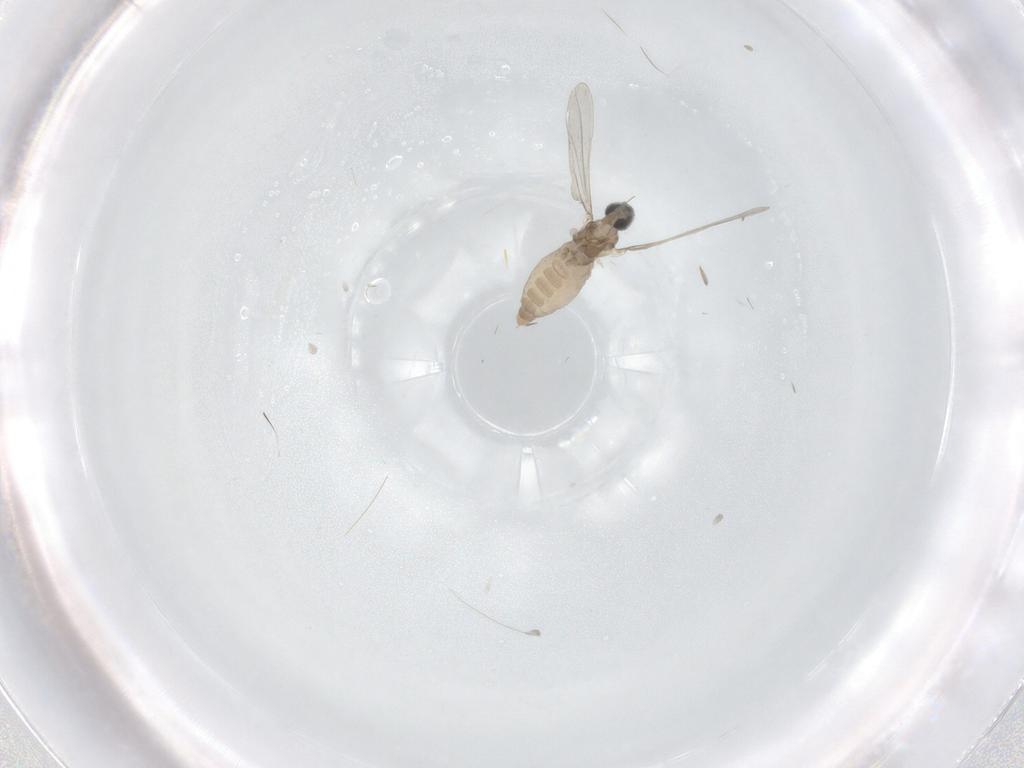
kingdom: Animalia
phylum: Arthropoda
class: Insecta
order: Diptera
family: Cecidomyiidae
